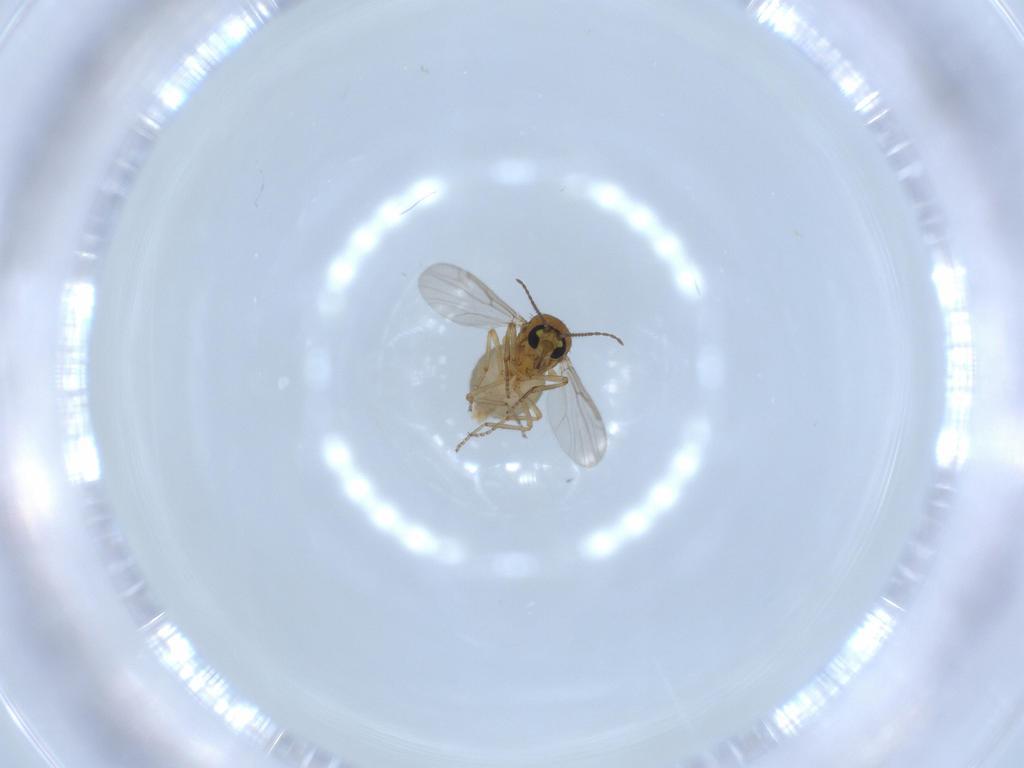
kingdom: Animalia
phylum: Arthropoda
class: Insecta
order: Diptera
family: Ceratopogonidae
